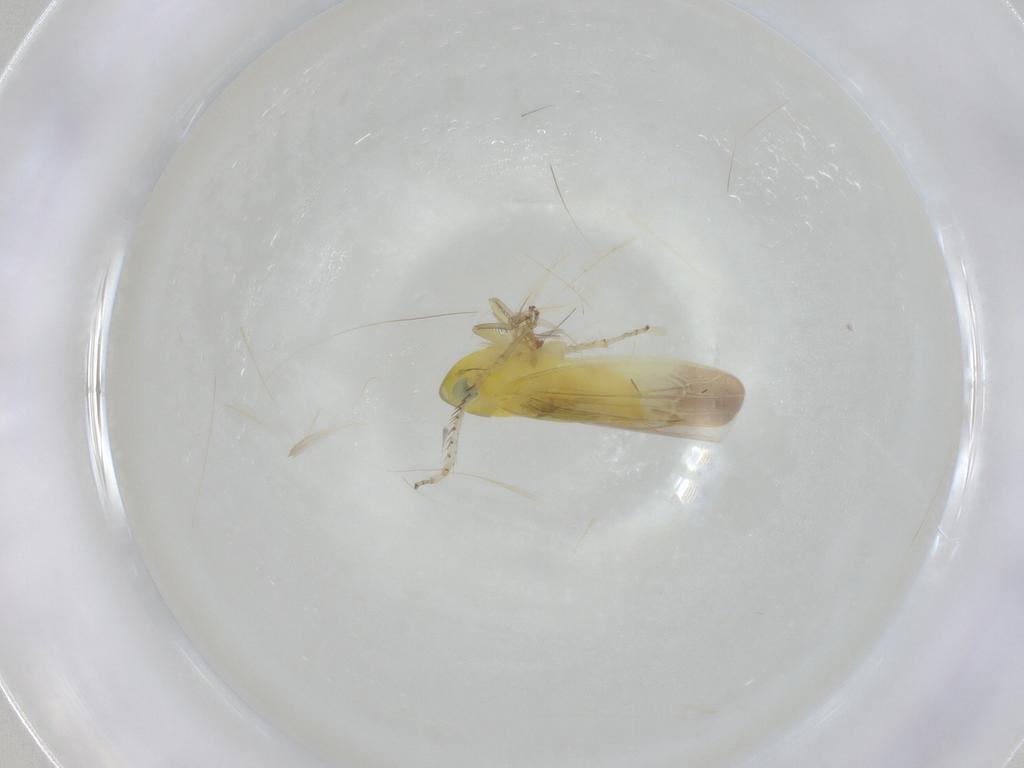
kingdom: Animalia
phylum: Arthropoda
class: Insecta
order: Hemiptera
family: Cicadellidae
